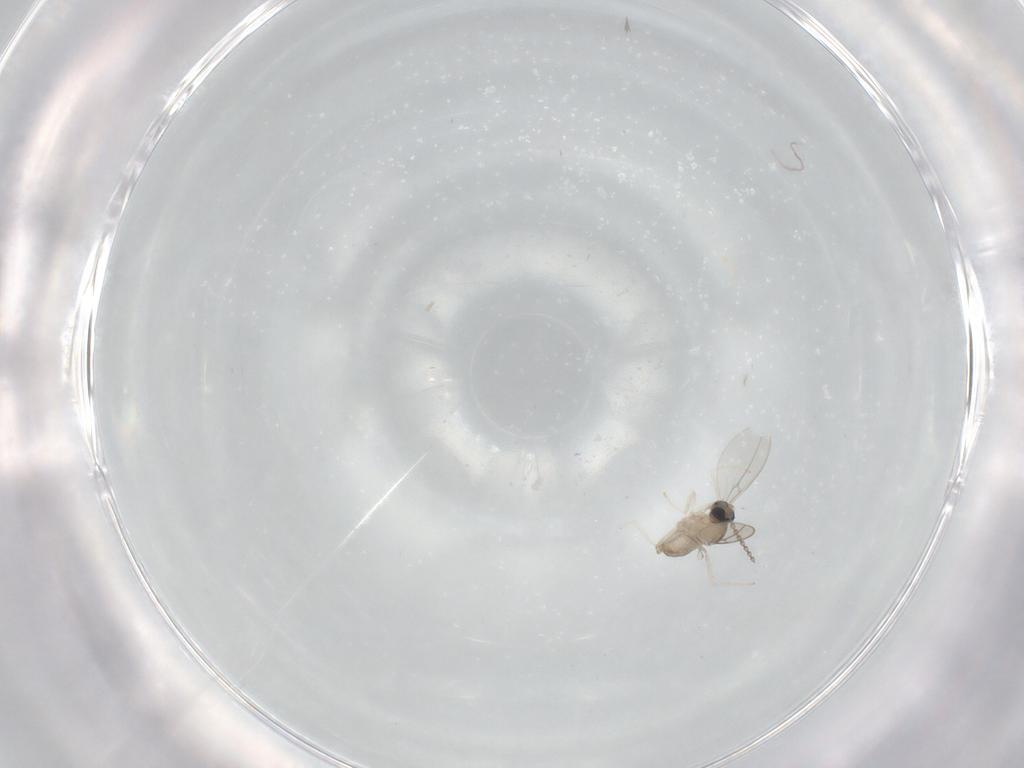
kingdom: Animalia
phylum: Arthropoda
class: Insecta
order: Diptera
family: Cecidomyiidae
